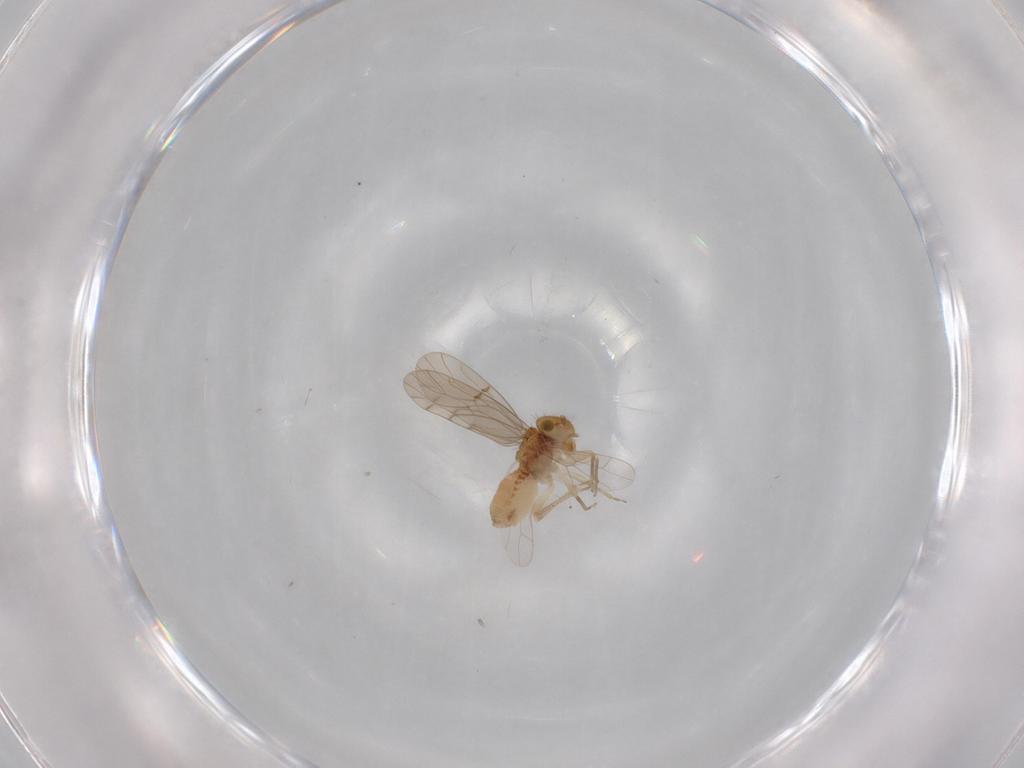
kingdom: Animalia
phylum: Arthropoda
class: Insecta
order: Psocodea
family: Ectopsocidae
